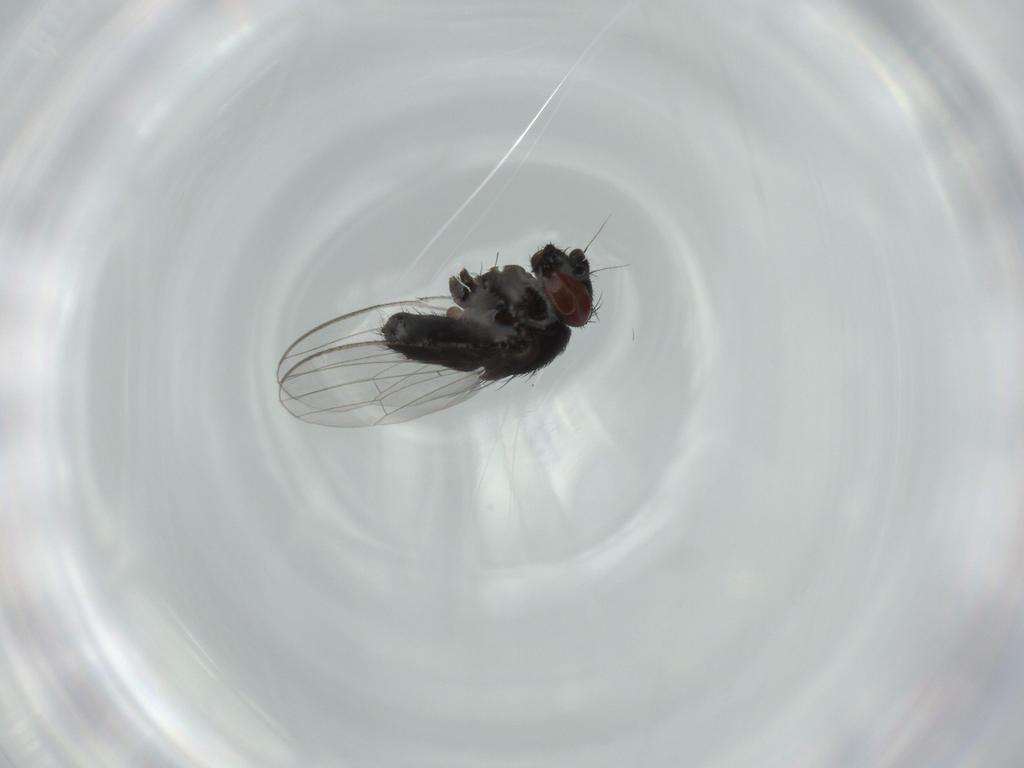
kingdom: Animalia
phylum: Arthropoda
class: Insecta
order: Diptera
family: Milichiidae
